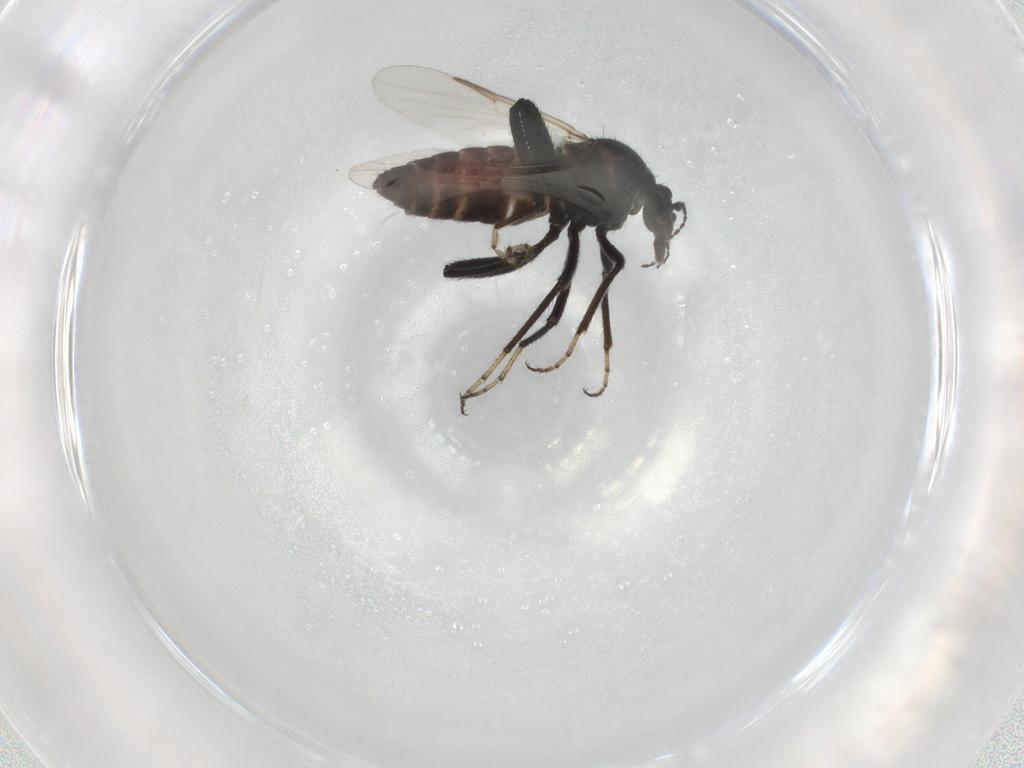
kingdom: Animalia
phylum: Arthropoda
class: Insecta
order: Diptera
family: Ceratopogonidae
